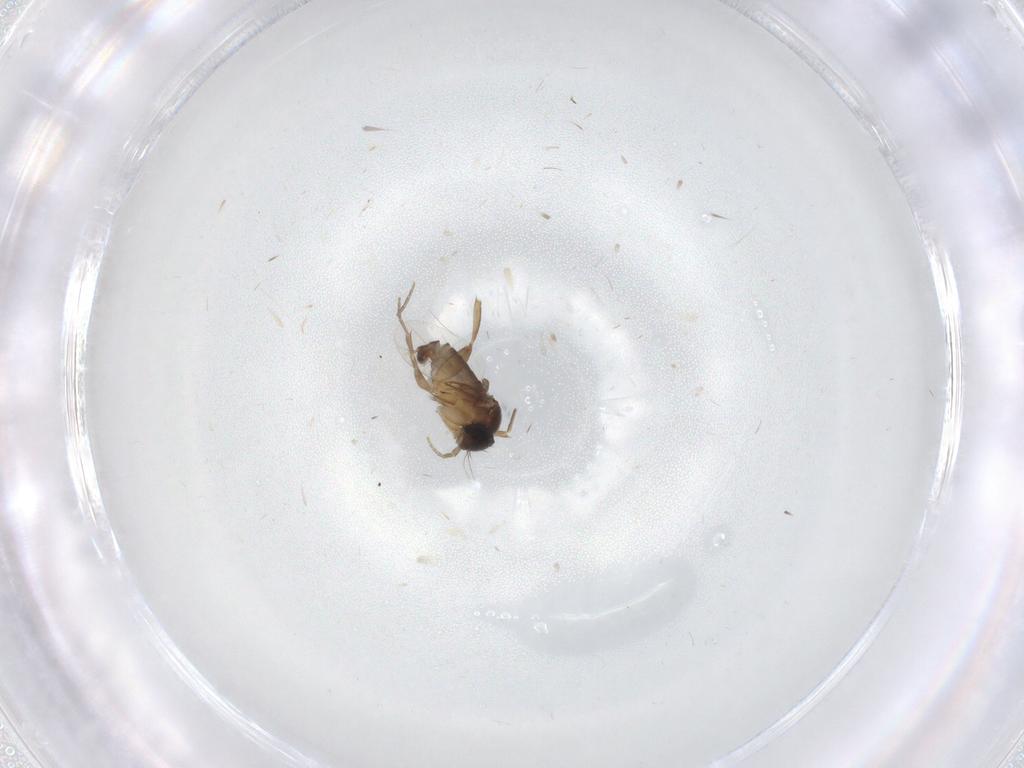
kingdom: Animalia
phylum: Arthropoda
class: Insecta
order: Diptera
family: Phoridae
